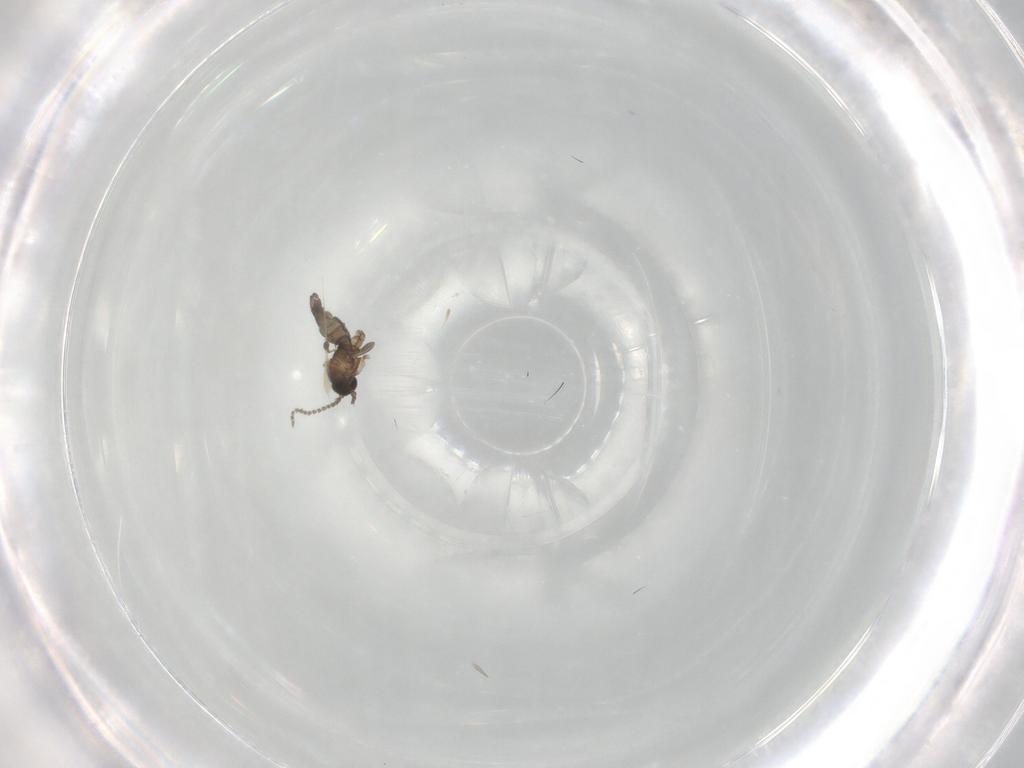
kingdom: Animalia
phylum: Arthropoda
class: Insecta
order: Diptera
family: Sciaridae
